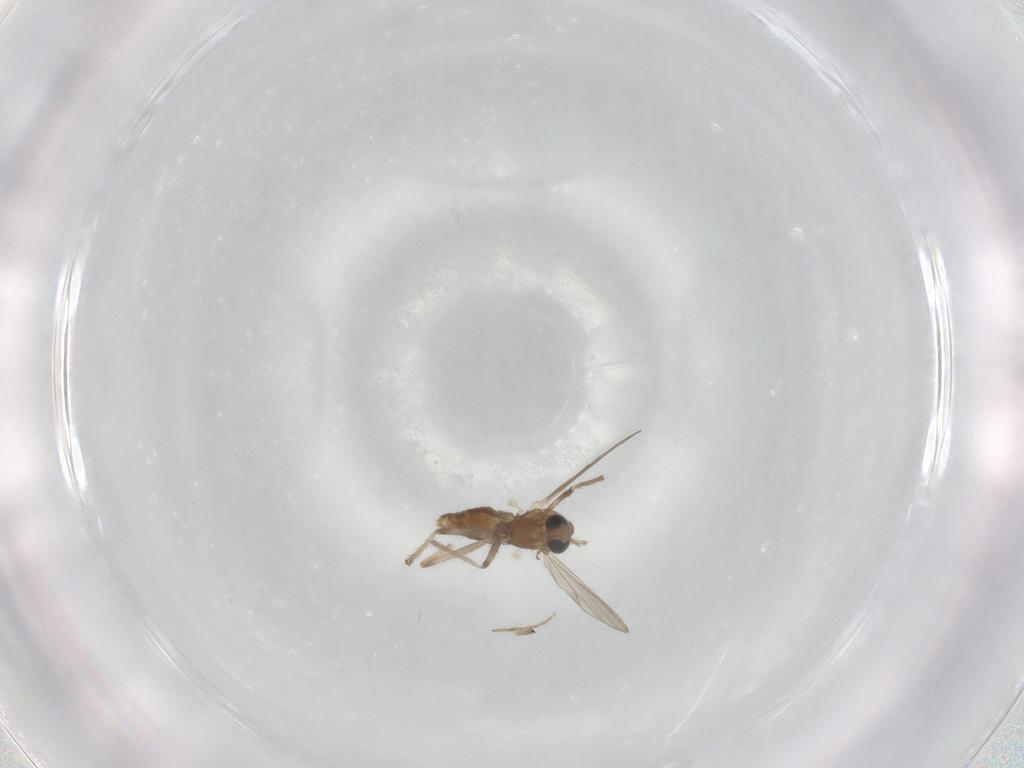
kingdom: Animalia
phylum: Arthropoda
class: Insecta
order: Diptera
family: Chironomidae
